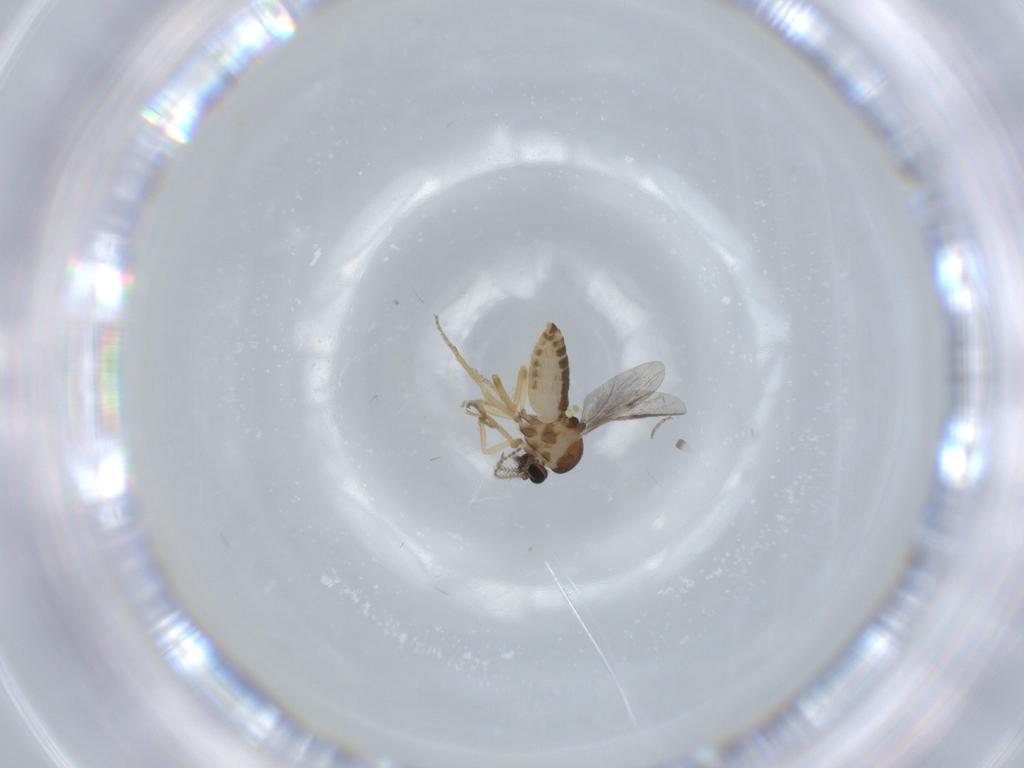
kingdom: Animalia
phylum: Arthropoda
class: Insecta
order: Diptera
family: Ceratopogonidae
